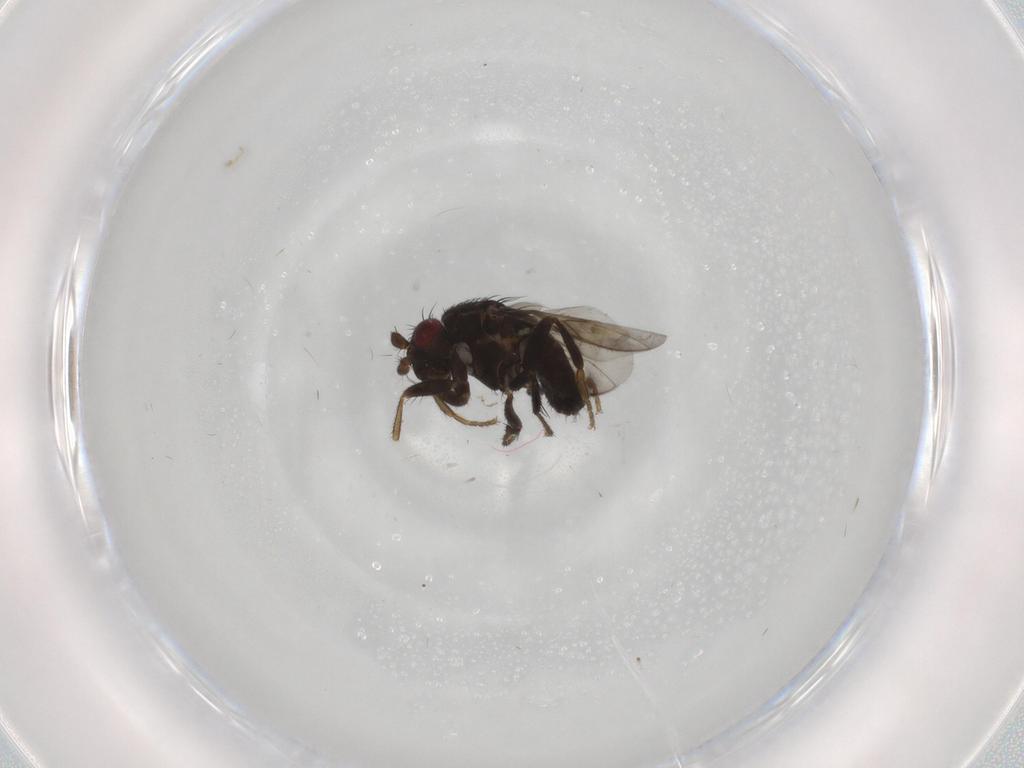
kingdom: Animalia
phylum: Arthropoda
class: Insecta
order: Diptera
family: Sphaeroceridae
